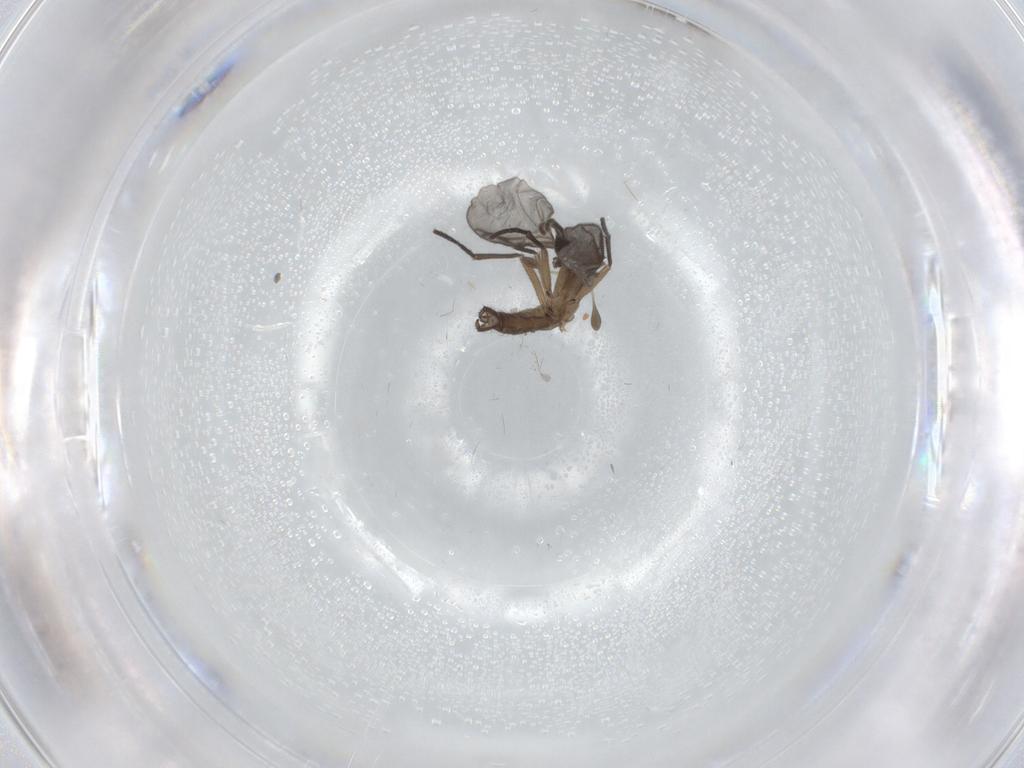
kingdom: Animalia
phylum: Arthropoda
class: Insecta
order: Diptera
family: Sciaridae
